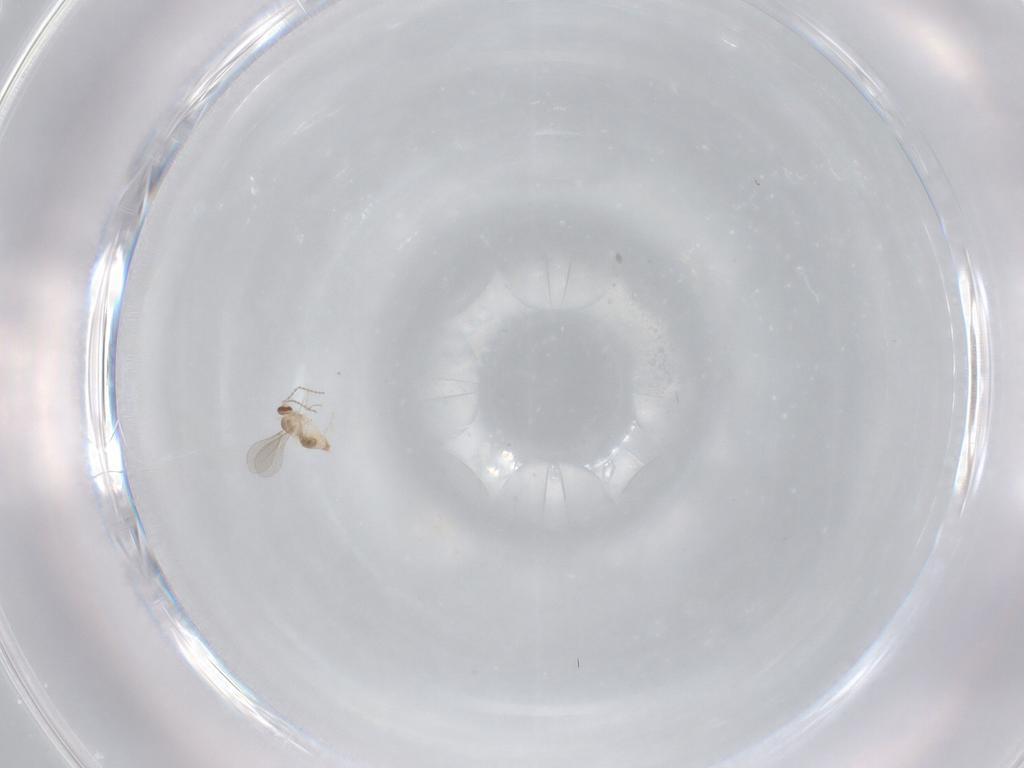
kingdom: Animalia
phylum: Arthropoda
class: Insecta
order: Diptera
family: Cecidomyiidae
